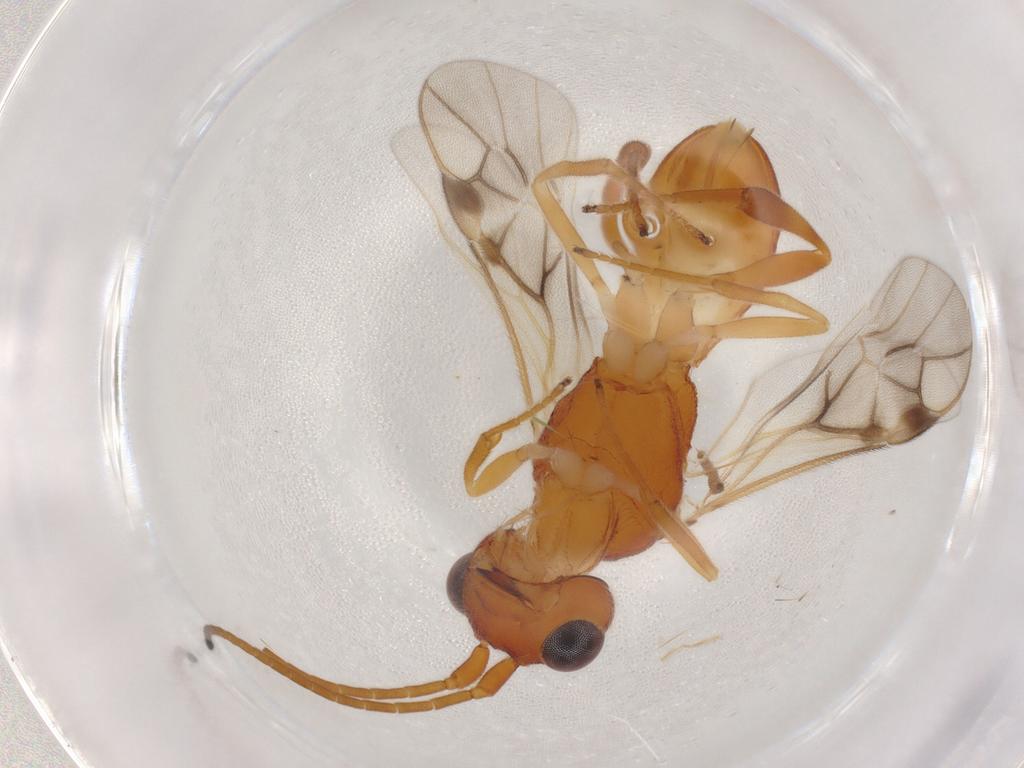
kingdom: Animalia
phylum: Arthropoda
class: Insecta
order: Hymenoptera
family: Braconidae
